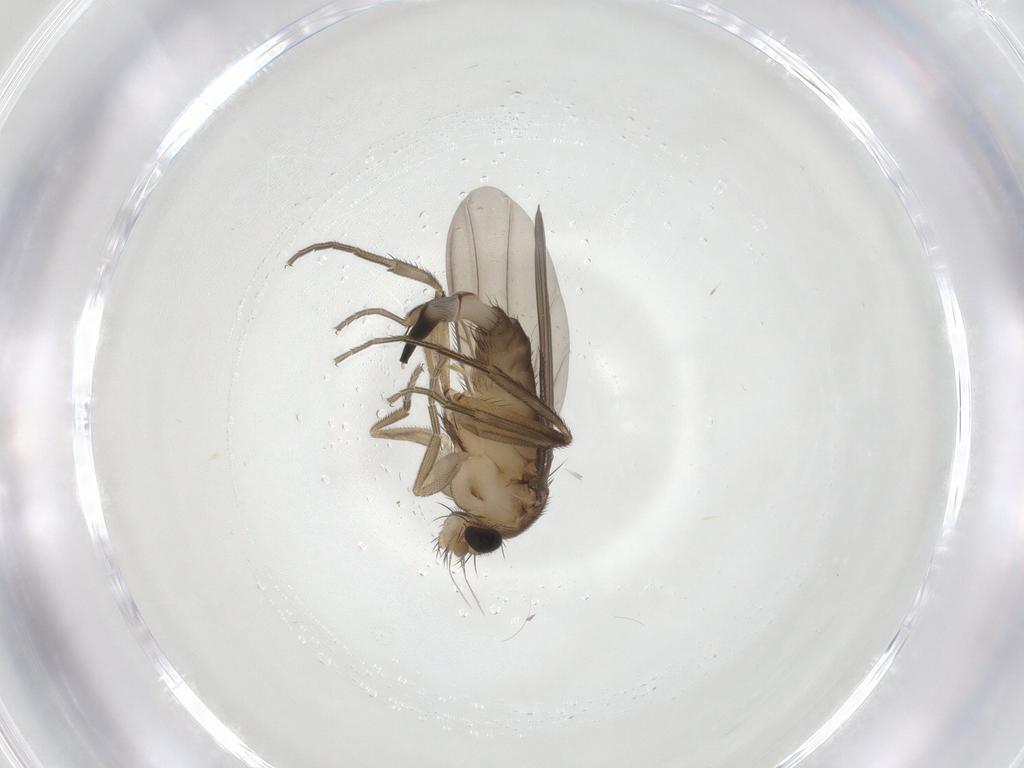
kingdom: Animalia
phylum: Arthropoda
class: Insecta
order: Diptera
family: Phoridae
